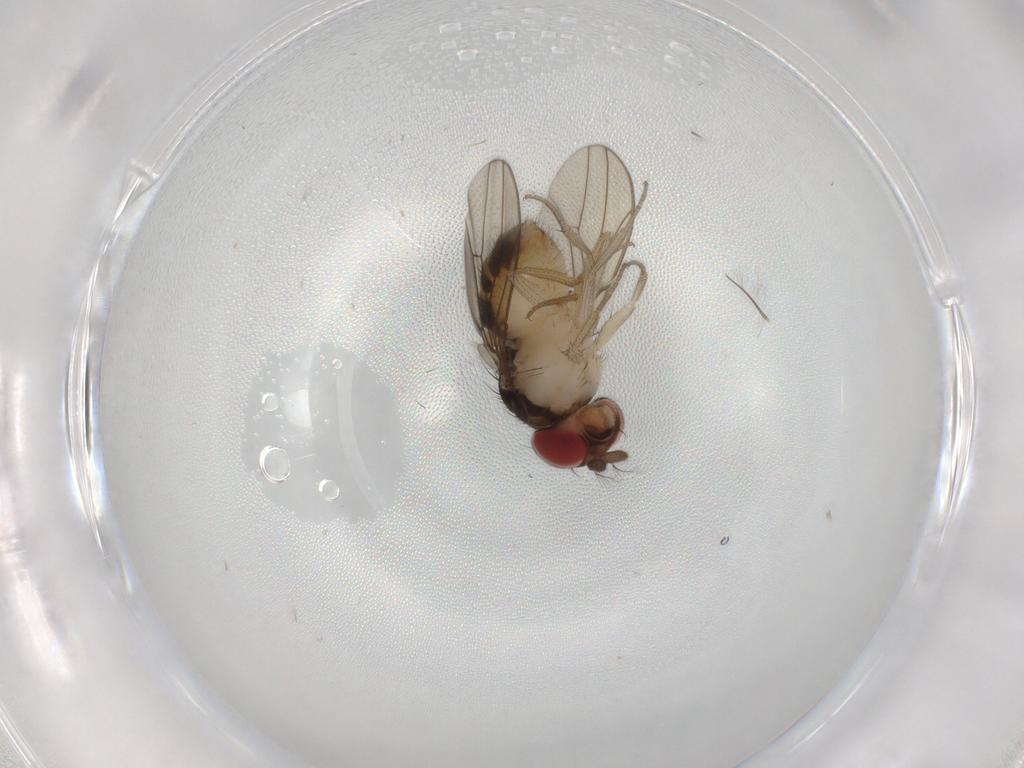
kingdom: Animalia
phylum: Arthropoda
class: Insecta
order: Diptera
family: Drosophilidae
